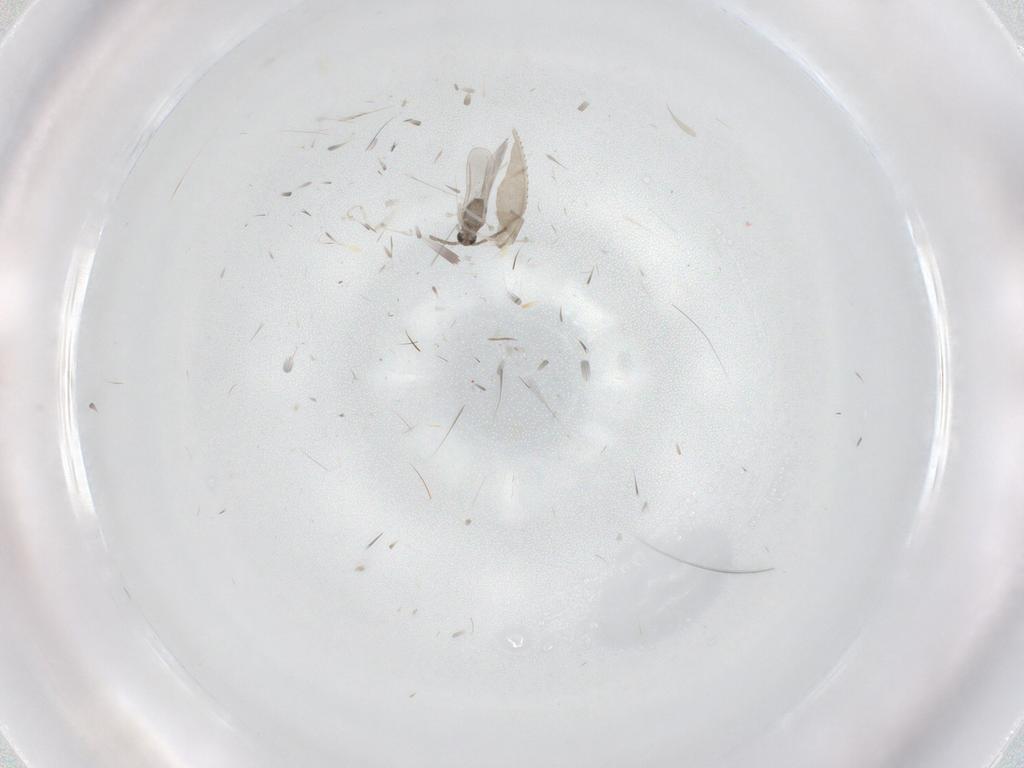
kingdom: Animalia
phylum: Arthropoda
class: Insecta
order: Diptera
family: Cecidomyiidae
